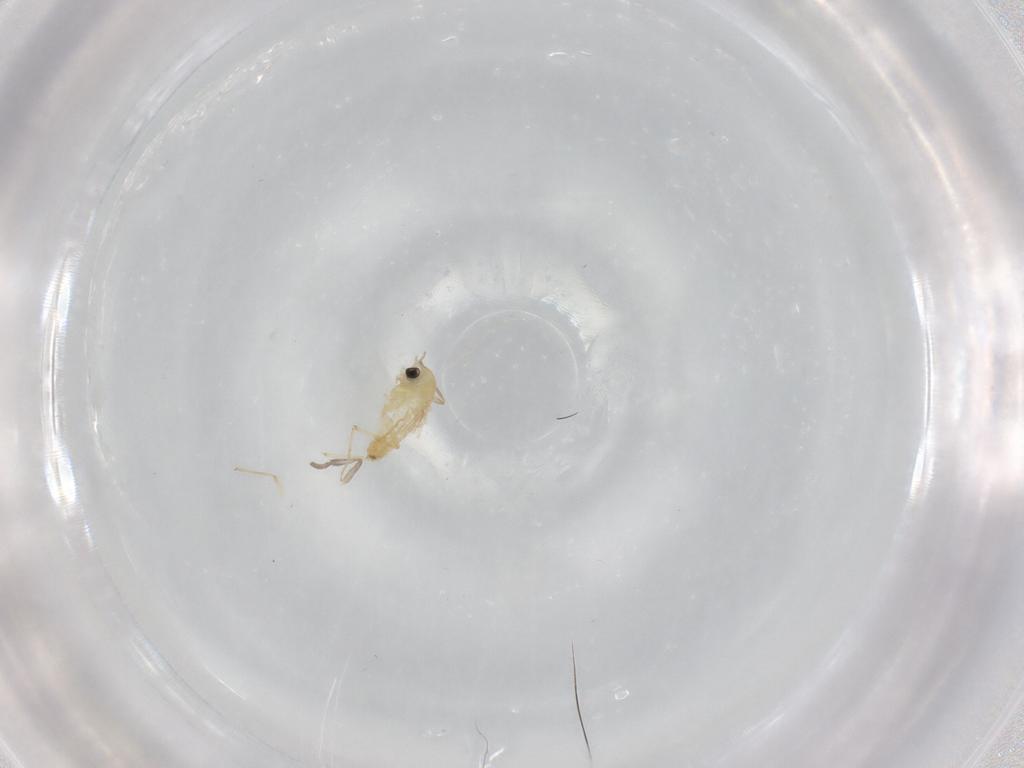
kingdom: Animalia
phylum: Arthropoda
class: Insecta
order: Diptera
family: Chironomidae
